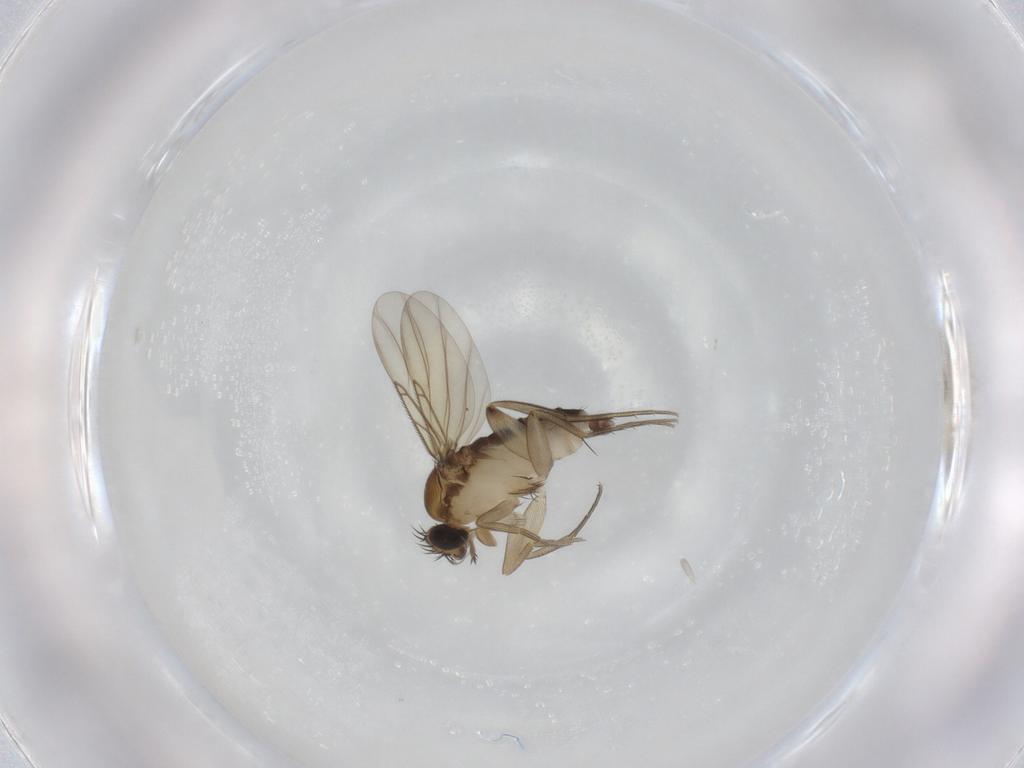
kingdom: Animalia
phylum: Arthropoda
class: Insecta
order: Diptera
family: Phoridae
